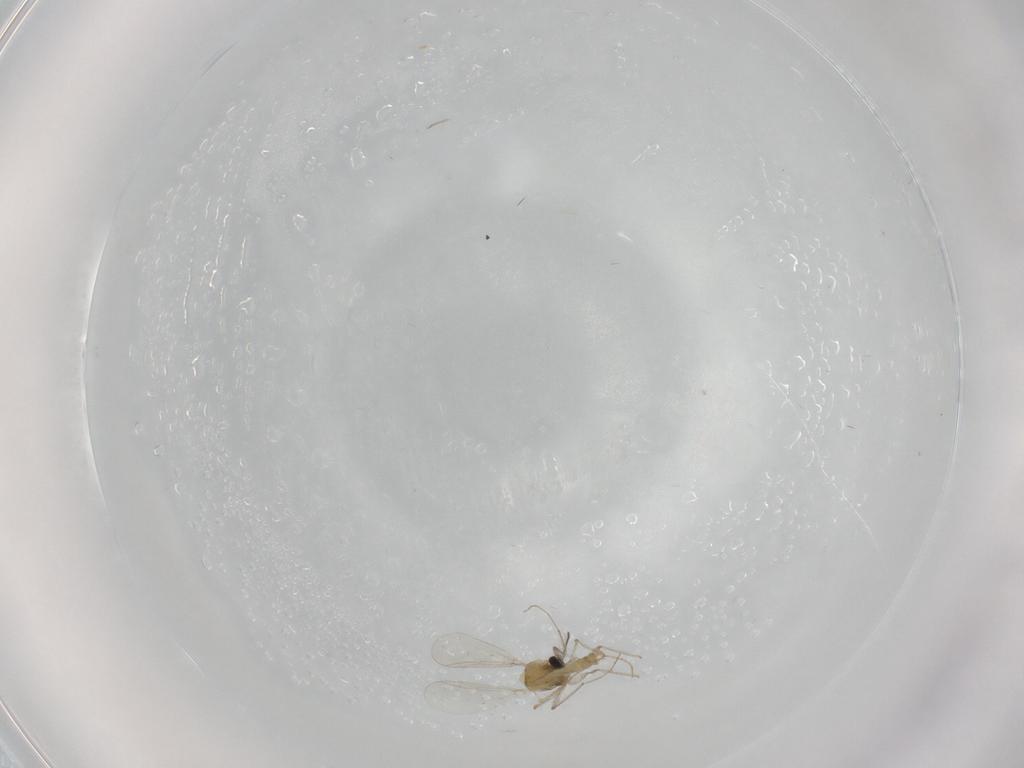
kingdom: Animalia
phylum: Arthropoda
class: Insecta
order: Diptera
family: Chironomidae
